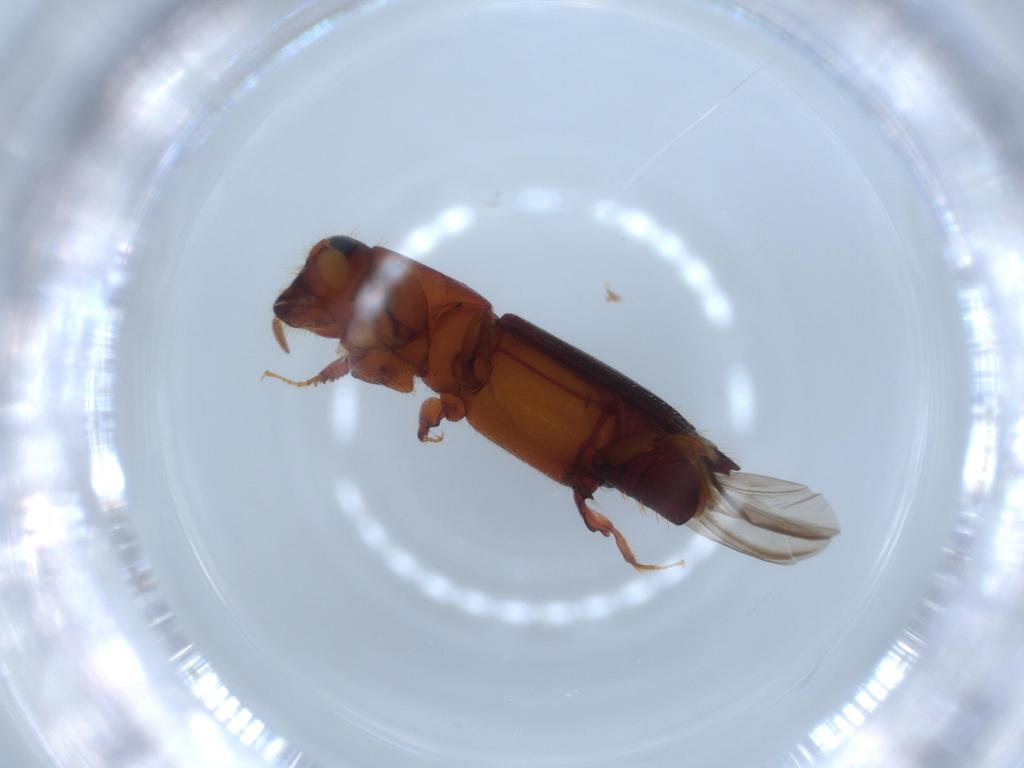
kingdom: Animalia
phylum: Arthropoda
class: Insecta
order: Coleoptera
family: Curculionidae
